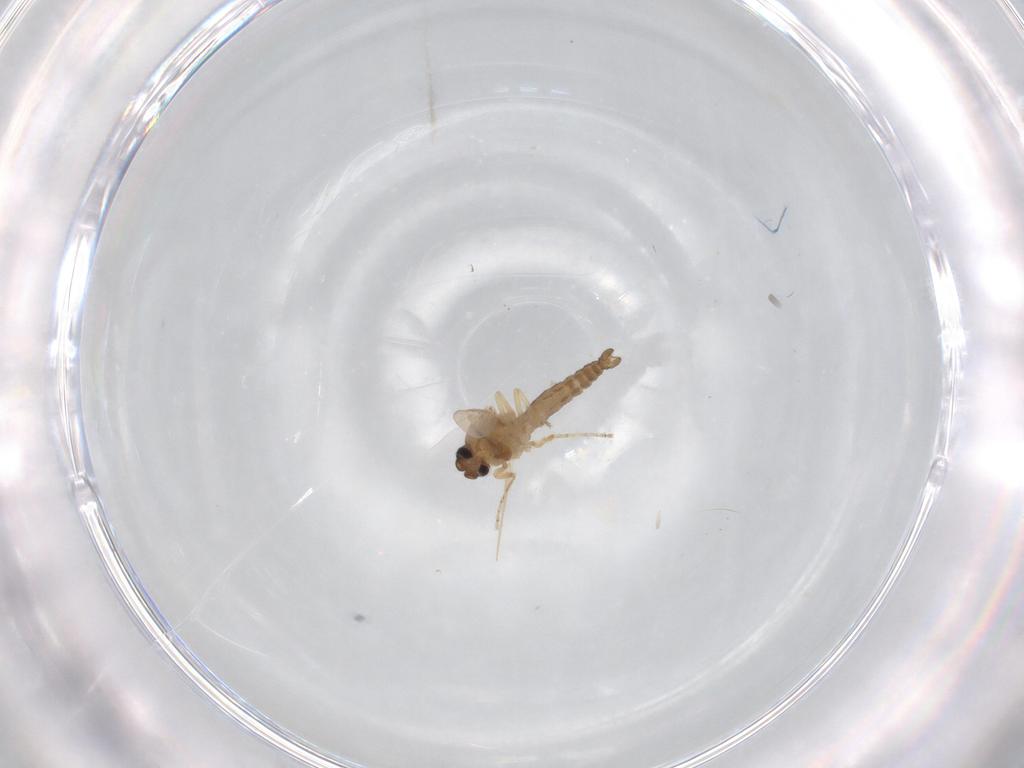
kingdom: Animalia
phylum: Arthropoda
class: Insecta
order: Diptera
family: Ceratopogonidae
